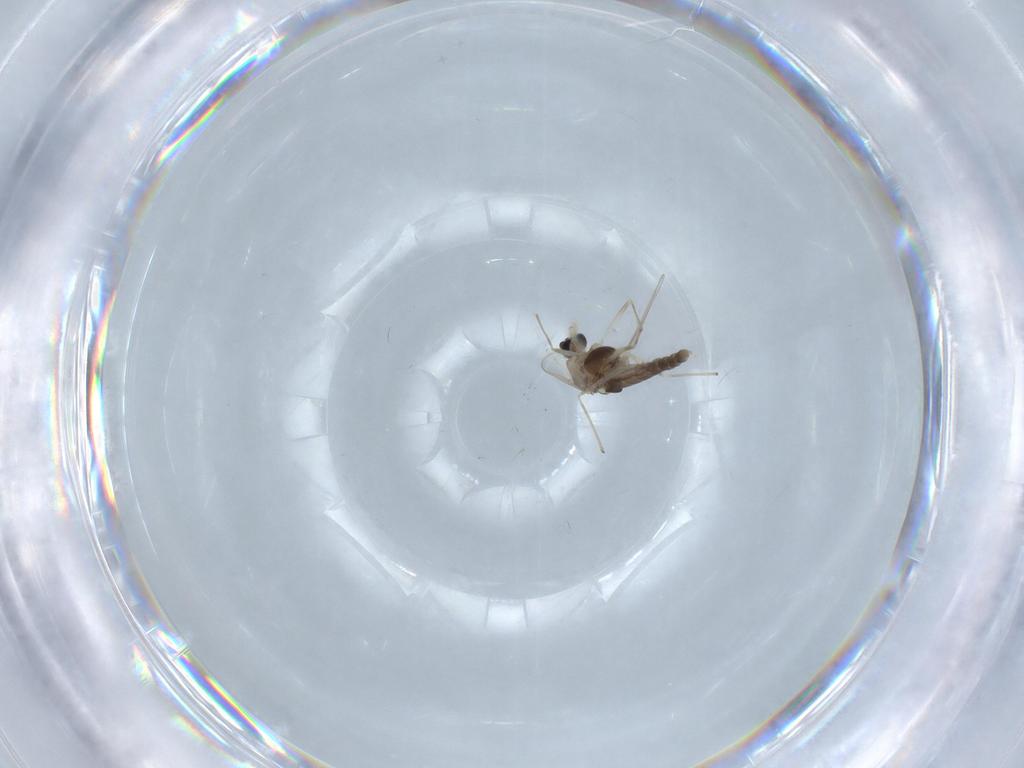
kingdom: Animalia
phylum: Arthropoda
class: Insecta
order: Diptera
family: Chironomidae
